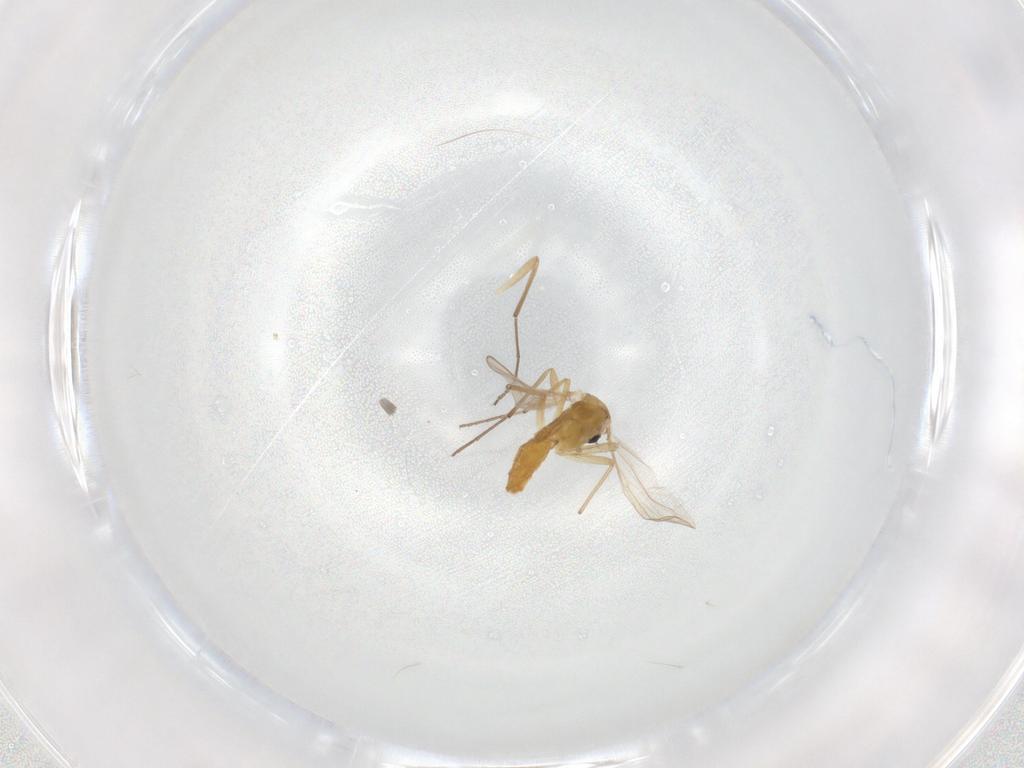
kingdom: Animalia
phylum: Arthropoda
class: Insecta
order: Diptera
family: Chironomidae
